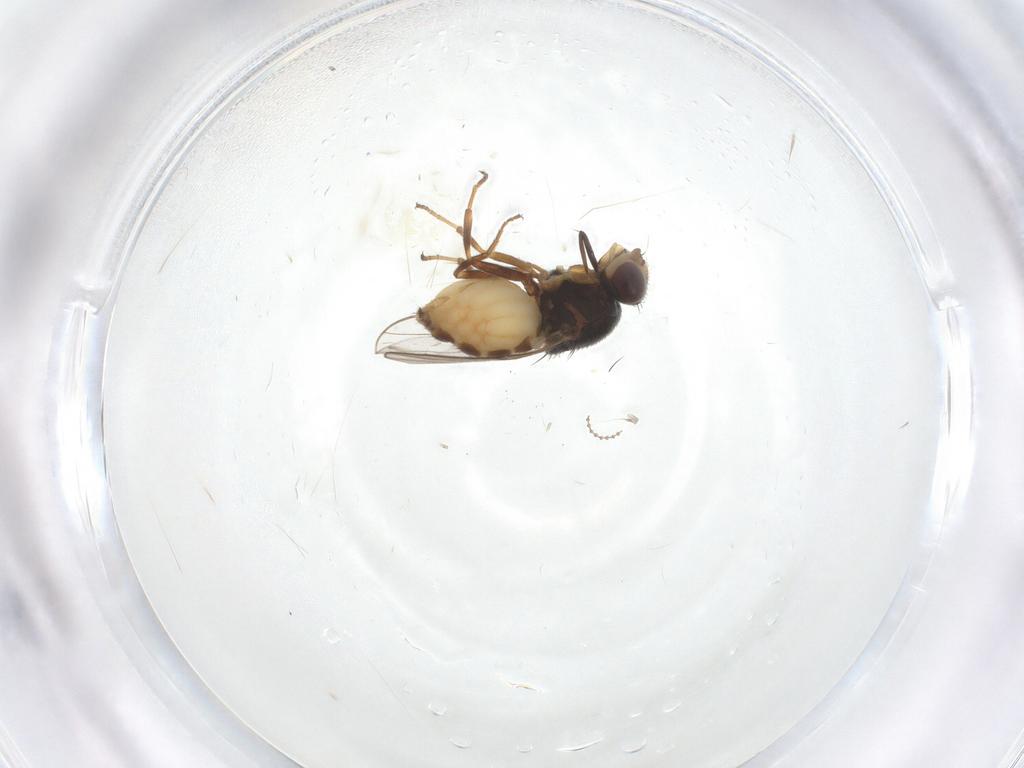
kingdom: Animalia
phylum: Arthropoda
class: Insecta
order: Diptera
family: Chloropidae
